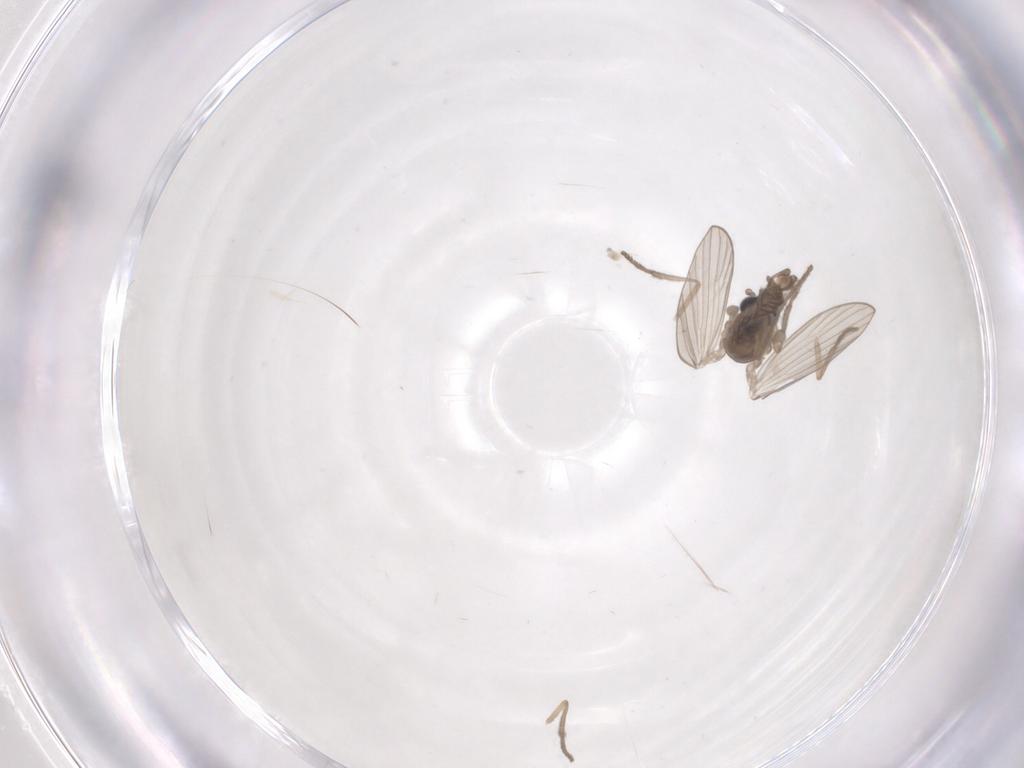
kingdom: Animalia
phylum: Arthropoda
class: Insecta
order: Diptera
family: Psychodidae
